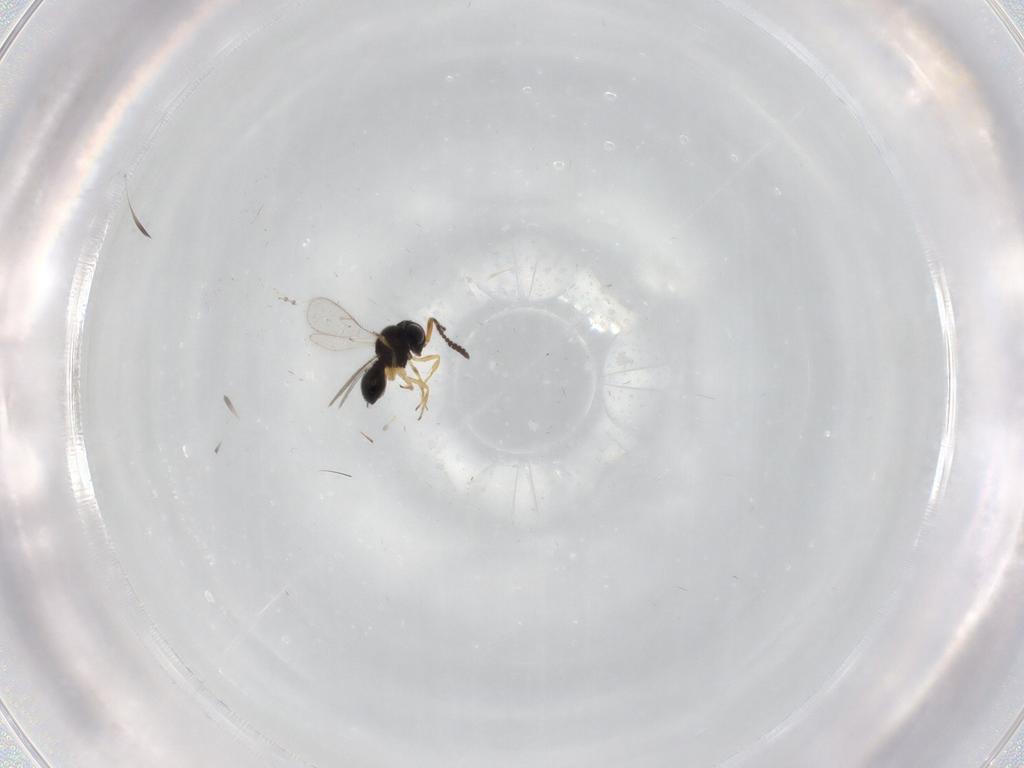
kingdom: Animalia
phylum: Arthropoda
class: Insecta
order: Hymenoptera
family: Scelionidae
